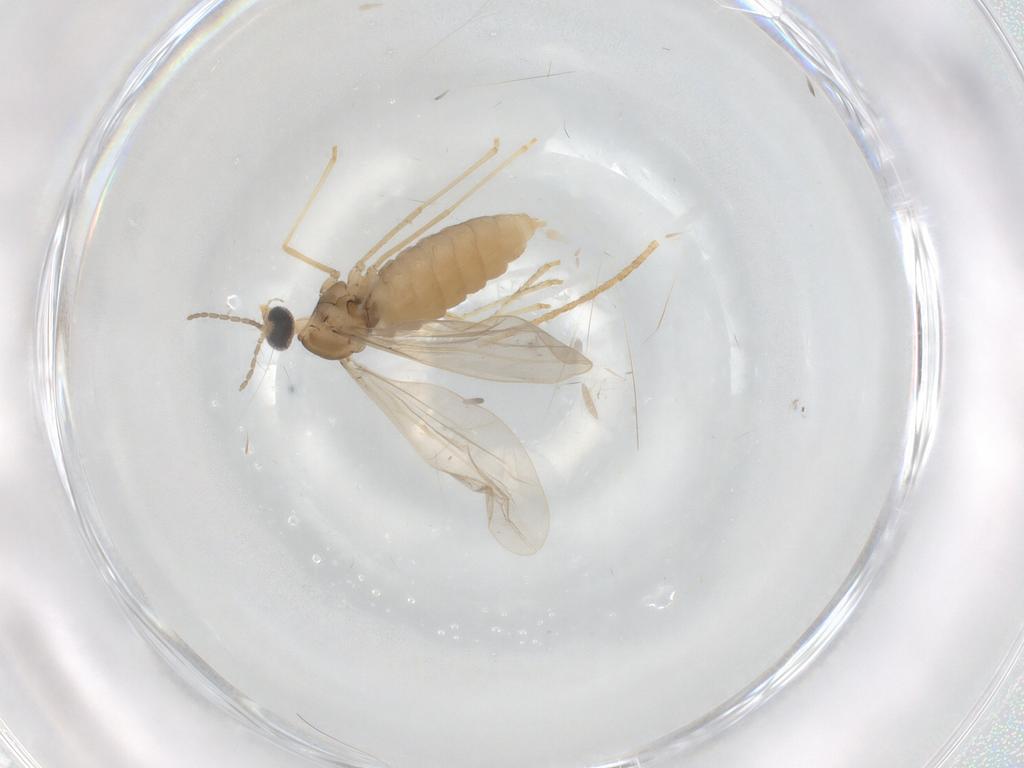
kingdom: Animalia
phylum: Arthropoda
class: Insecta
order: Diptera
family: Cecidomyiidae
